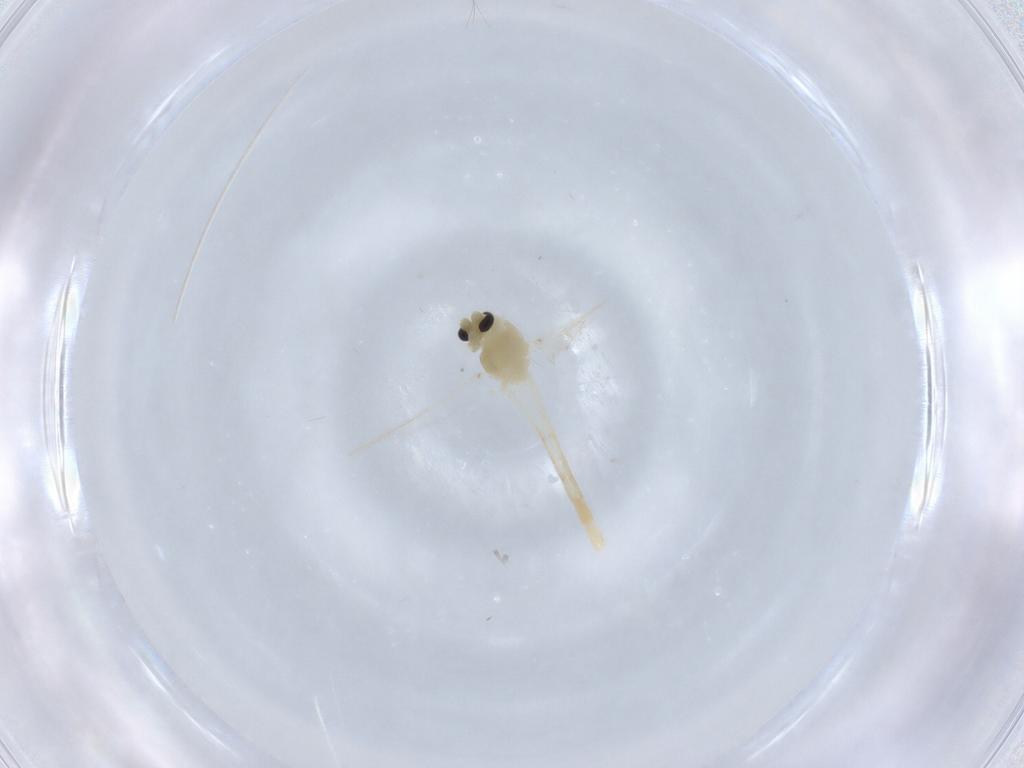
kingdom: Animalia
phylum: Arthropoda
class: Insecta
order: Diptera
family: Chironomidae
